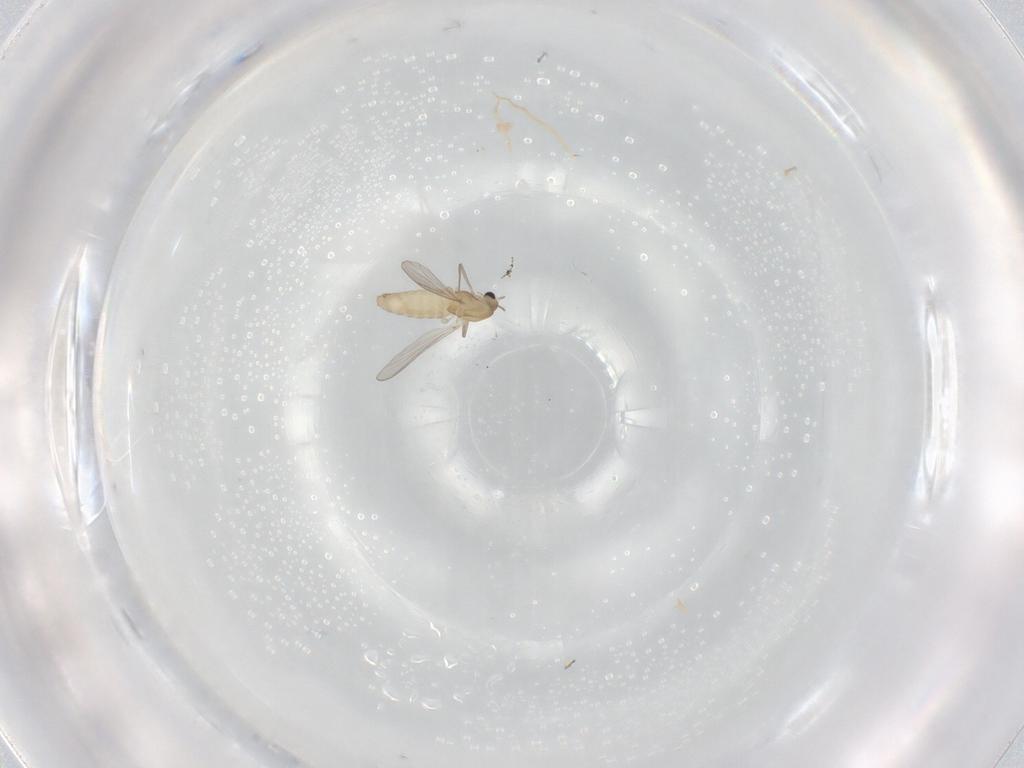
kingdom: Animalia
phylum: Arthropoda
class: Insecta
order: Diptera
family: Chironomidae
